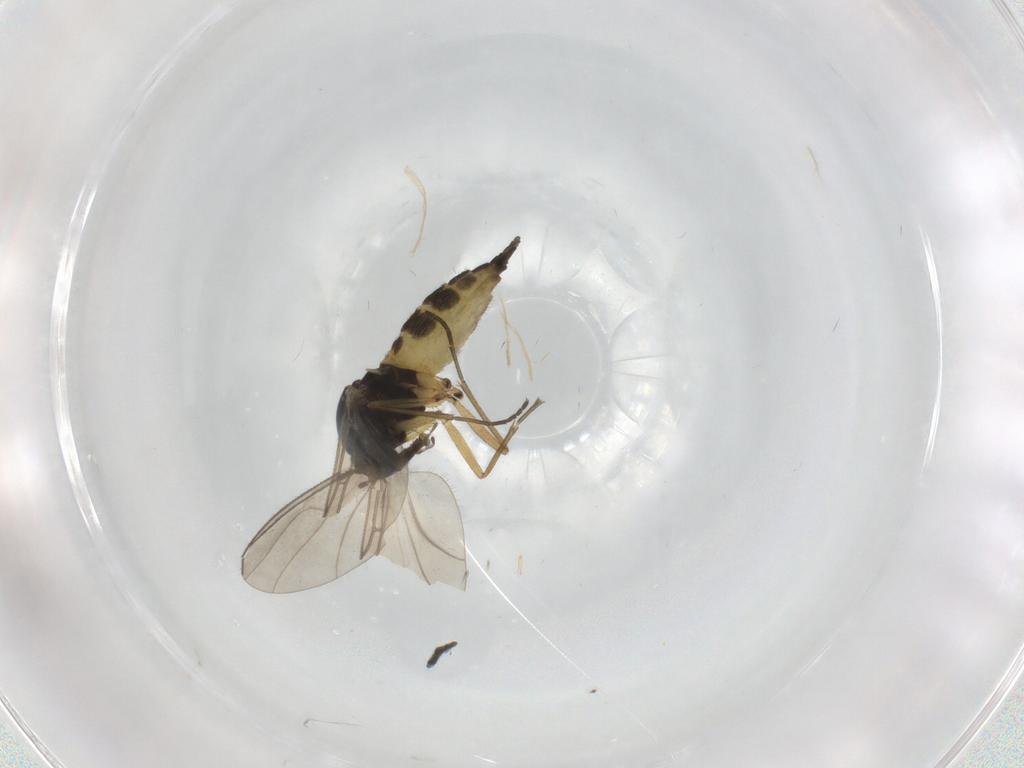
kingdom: Animalia
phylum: Arthropoda
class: Insecta
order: Diptera
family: Sciaridae
